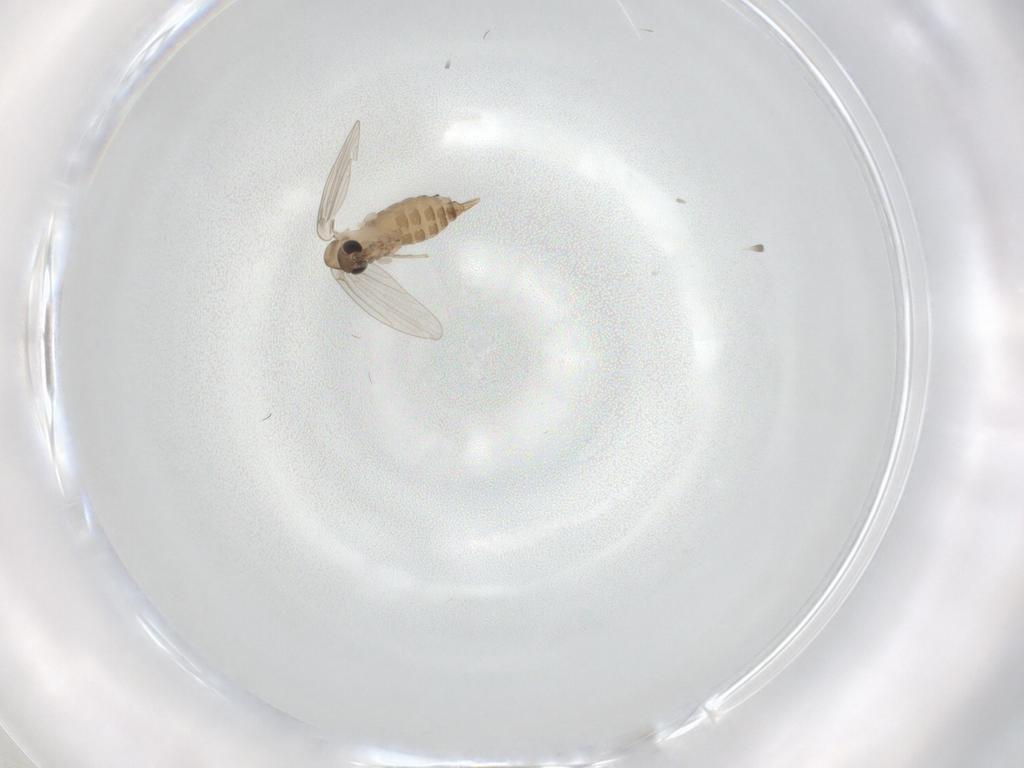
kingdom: Animalia
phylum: Arthropoda
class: Insecta
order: Diptera
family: Psychodidae
